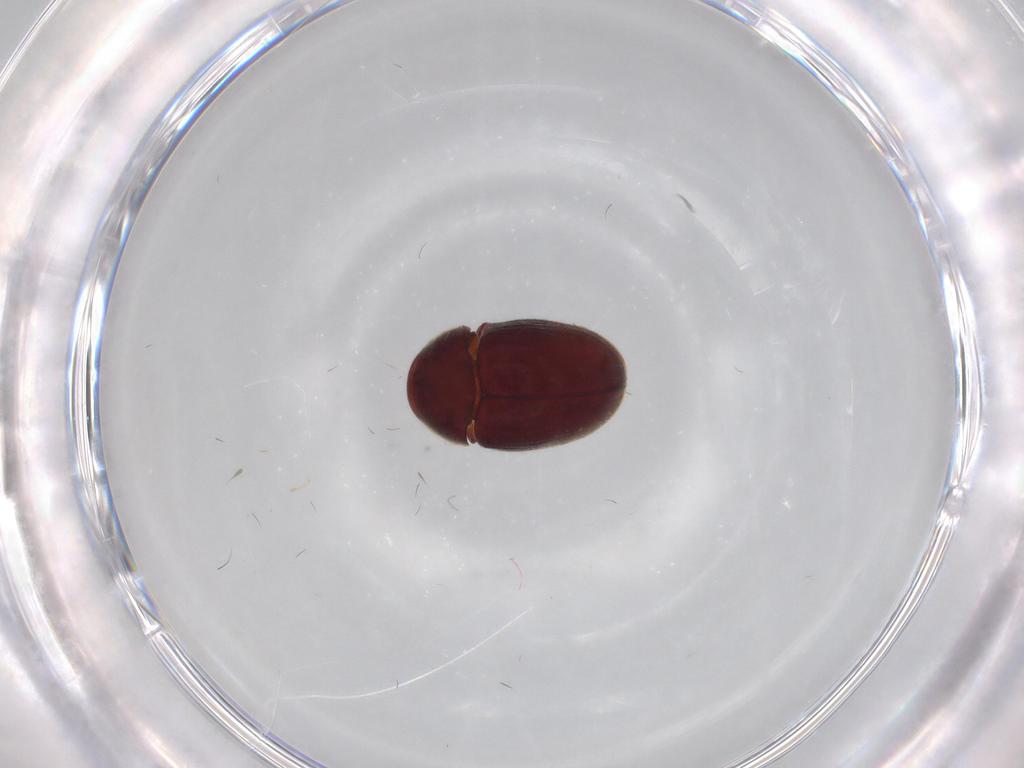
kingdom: Animalia
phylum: Arthropoda
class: Insecta
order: Coleoptera
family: Ptinidae
